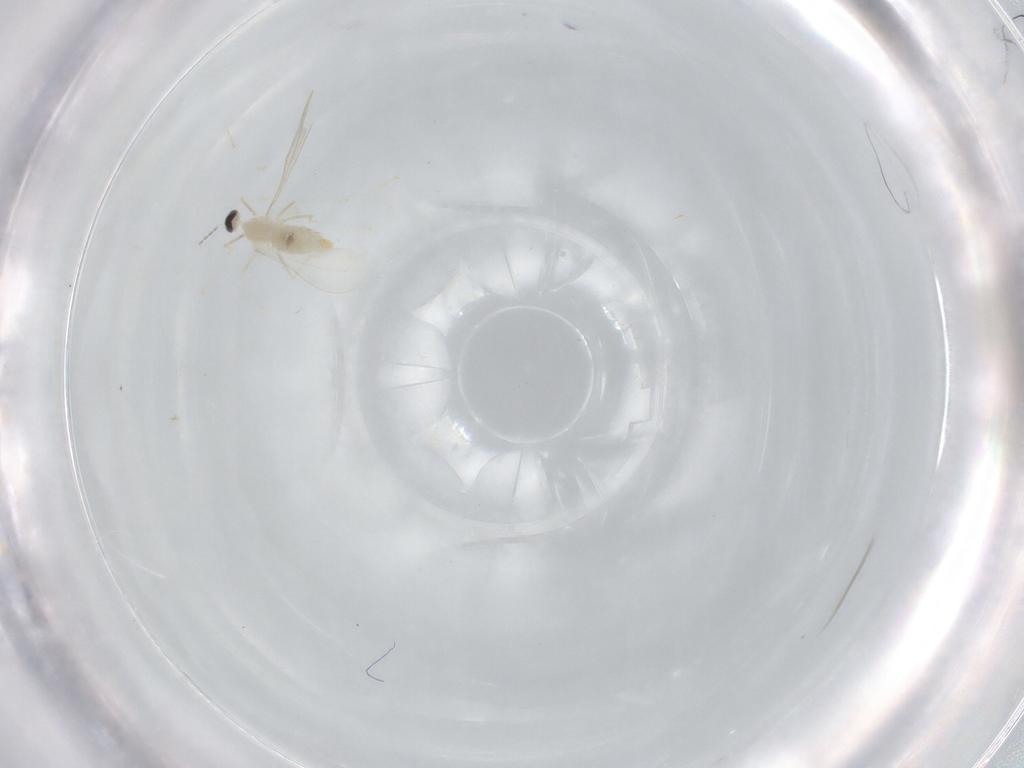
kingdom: Animalia
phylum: Arthropoda
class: Insecta
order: Diptera
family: Cecidomyiidae
